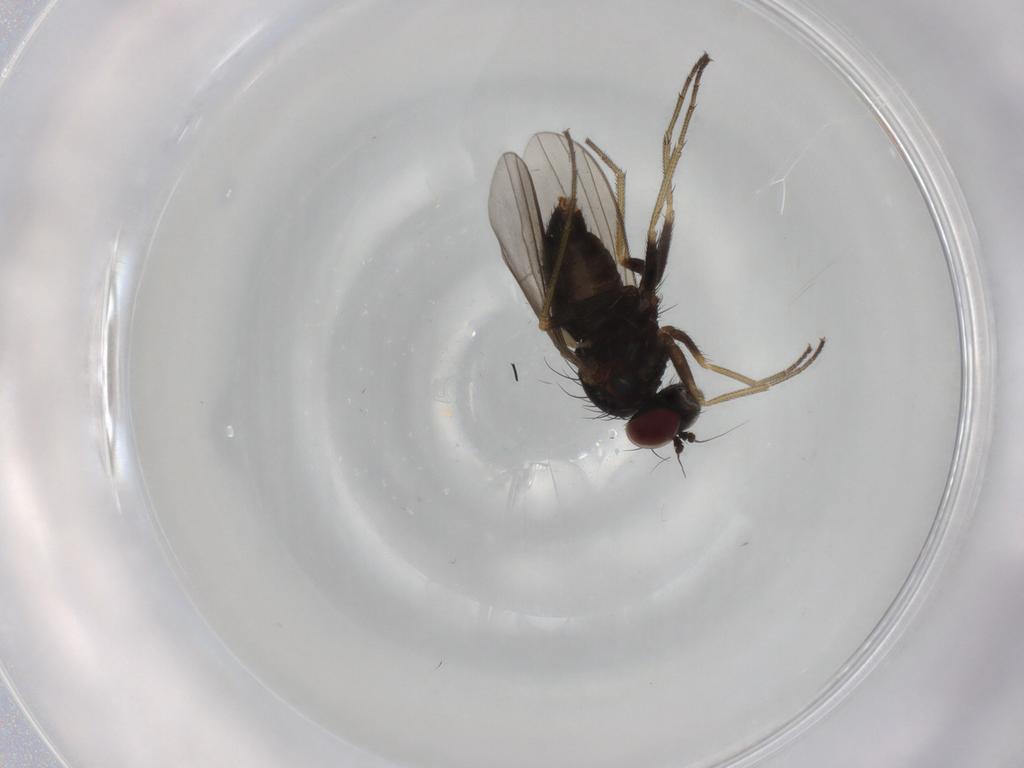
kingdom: Animalia
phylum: Arthropoda
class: Insecta
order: Diptera
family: Dolichopodidae
